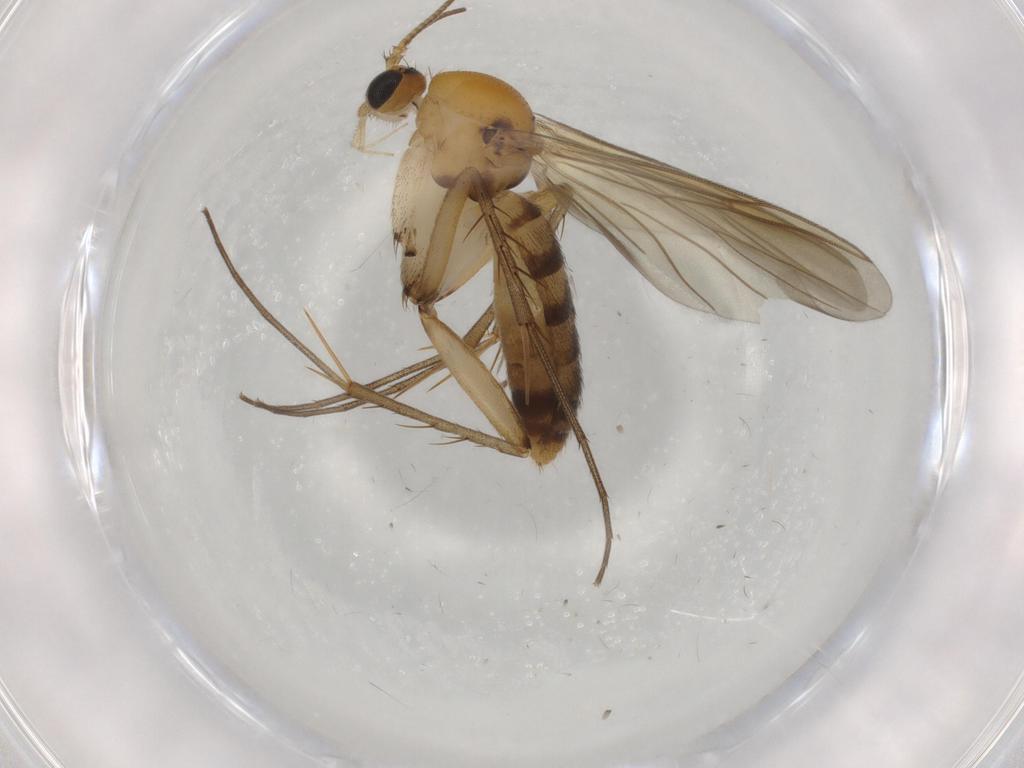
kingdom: Animalia
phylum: Arthropoda
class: Insecta
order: Diptera
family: Culicidae
